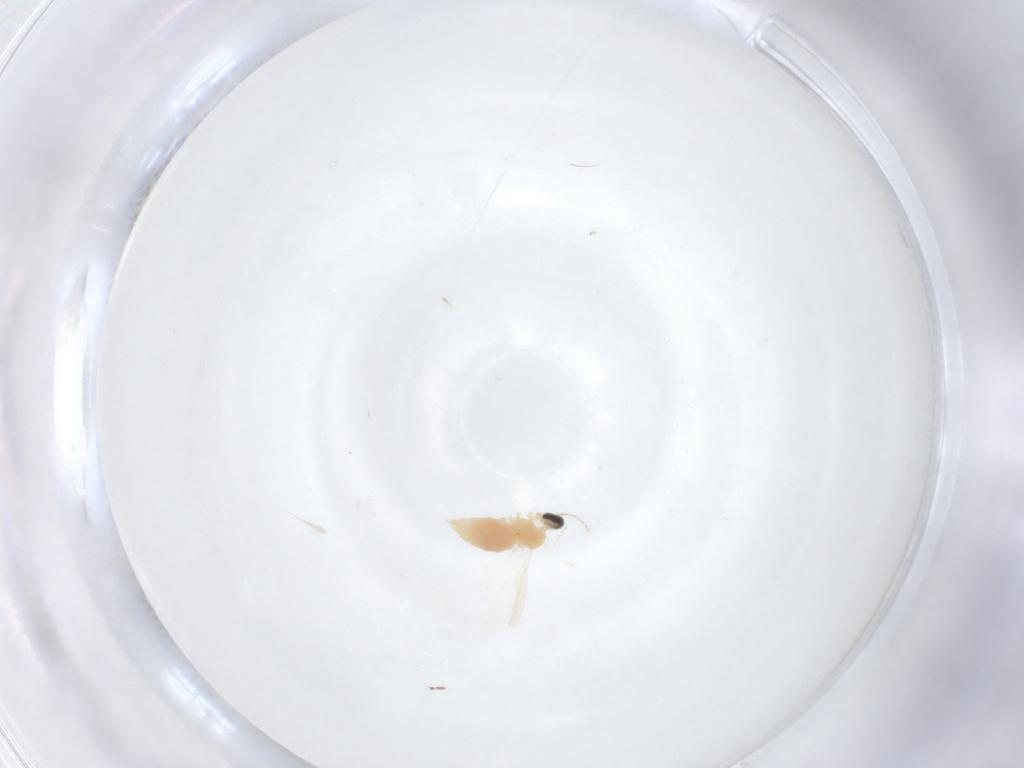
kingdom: Animalia
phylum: Arthropoda
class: Insecta
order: Diptera
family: Cecidomyiidae
